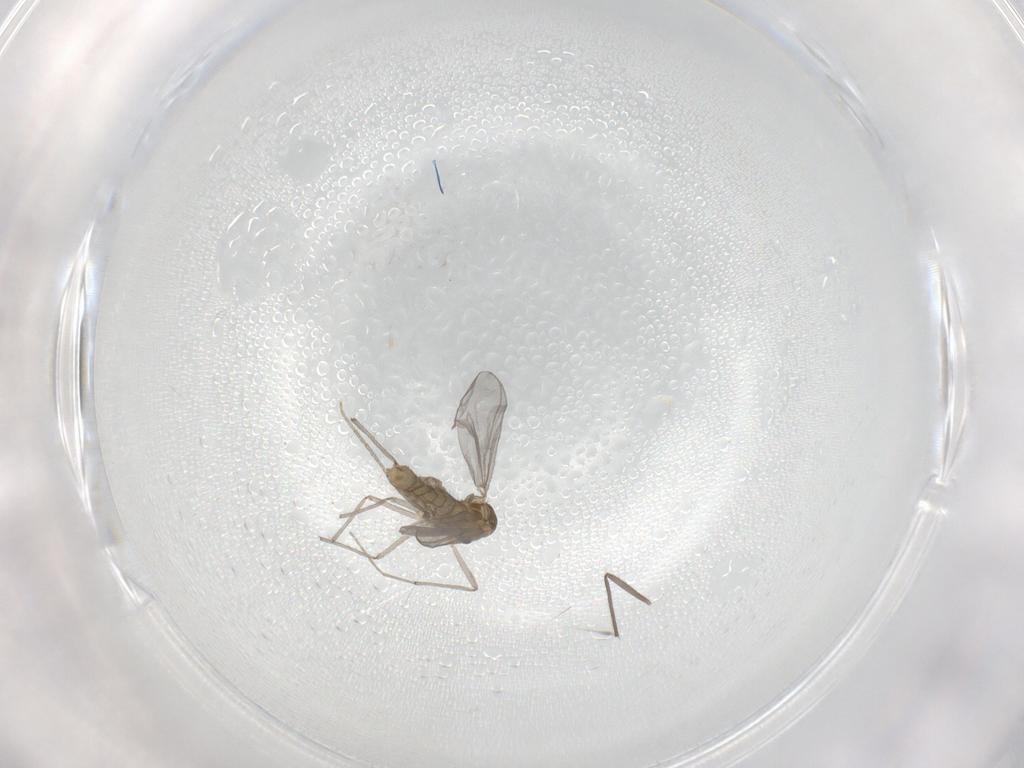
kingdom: Animalia
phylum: Arthropoda
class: Insecta
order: Diptera
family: Chironomidae
